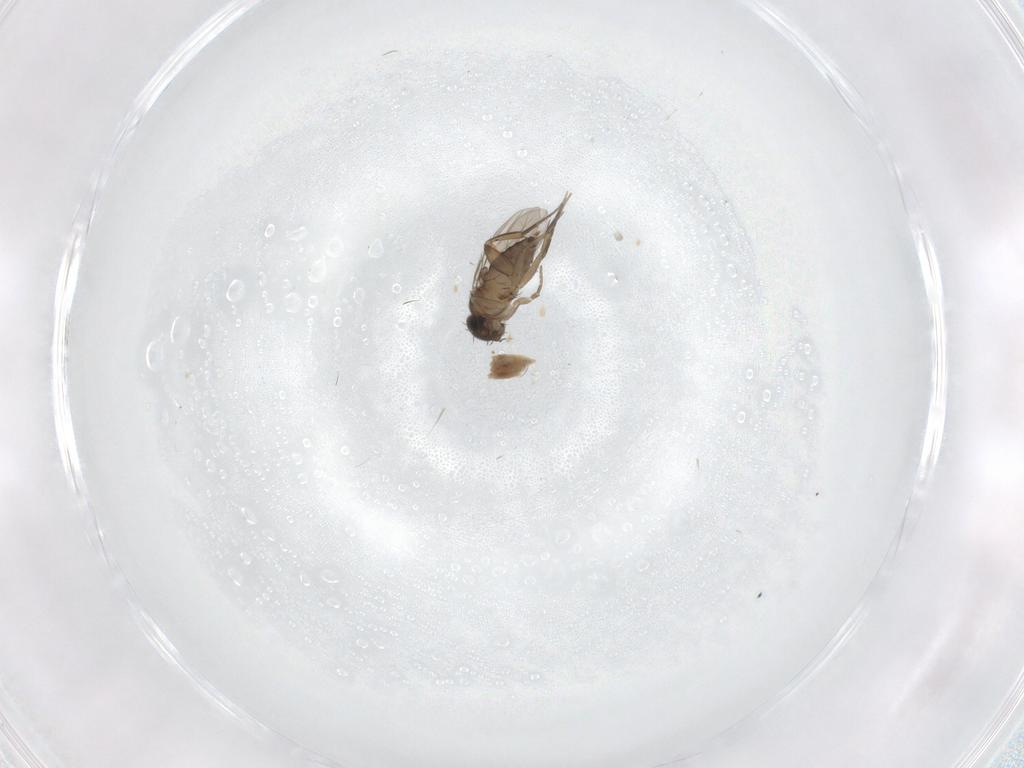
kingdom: Animalia
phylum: Arthropoda
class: Insecta
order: Diptera
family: Phoridae
